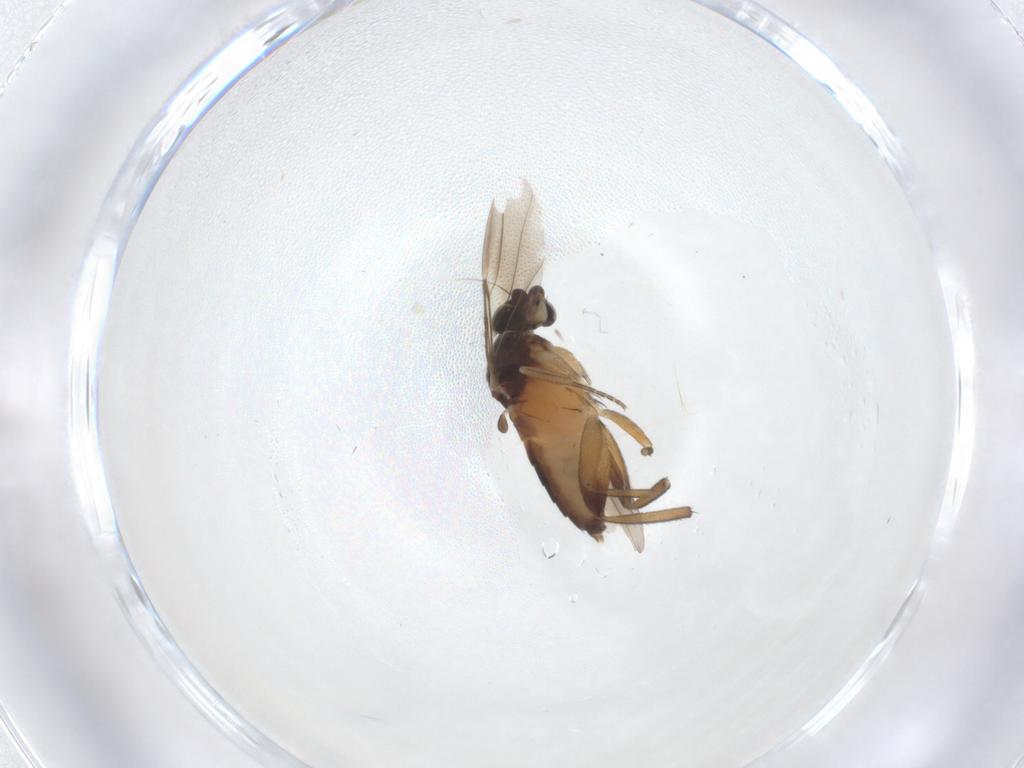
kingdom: Animalia
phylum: Arthropoda
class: Insecta
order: Diptera
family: Phoridae
